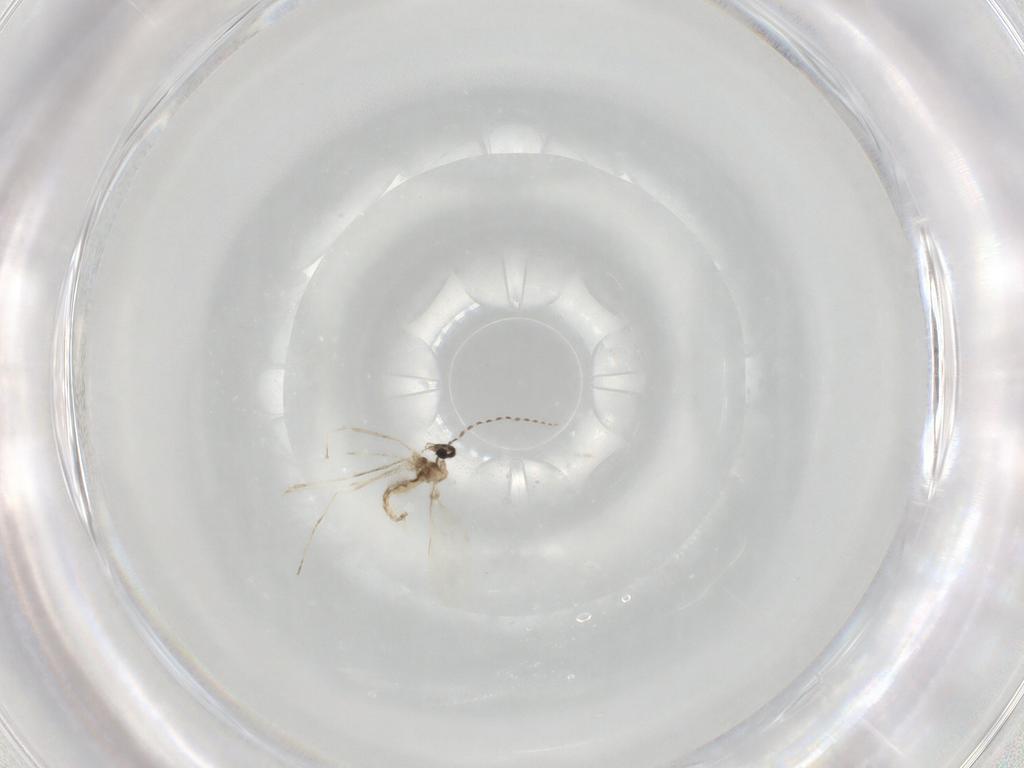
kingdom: Animalia
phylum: Arthropoda
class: Insecta
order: Diptera
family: Cecidomyiidae
